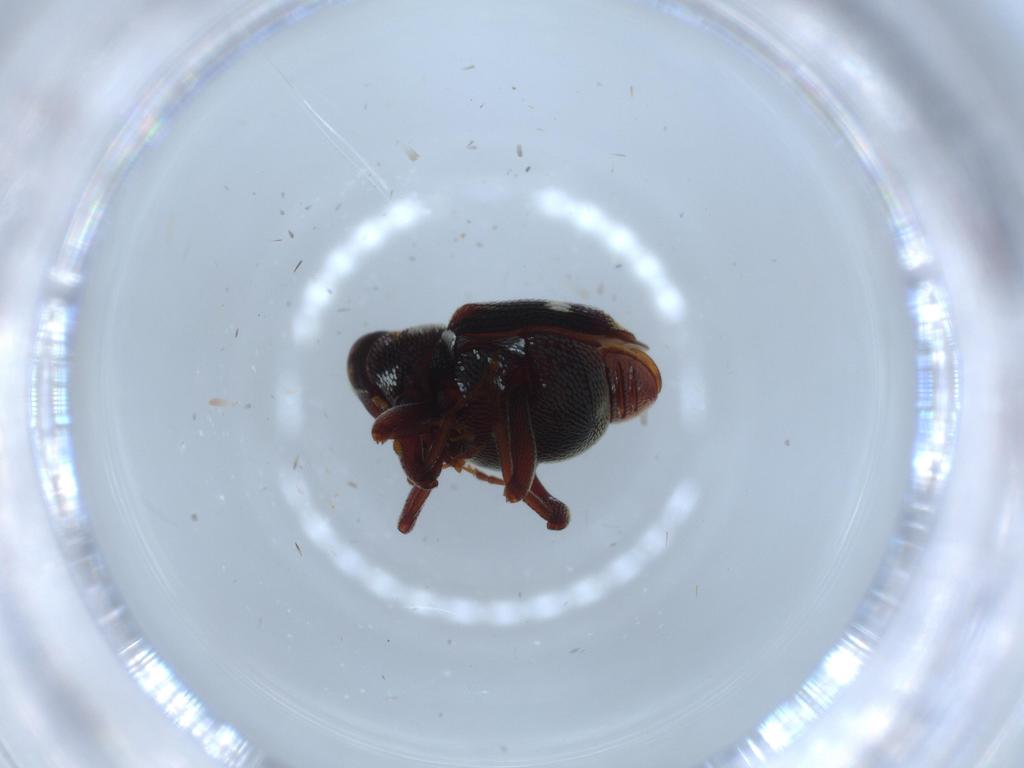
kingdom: Animalia
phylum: Arthropoda
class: Insecta
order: Coleoptera
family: Curculionidae
